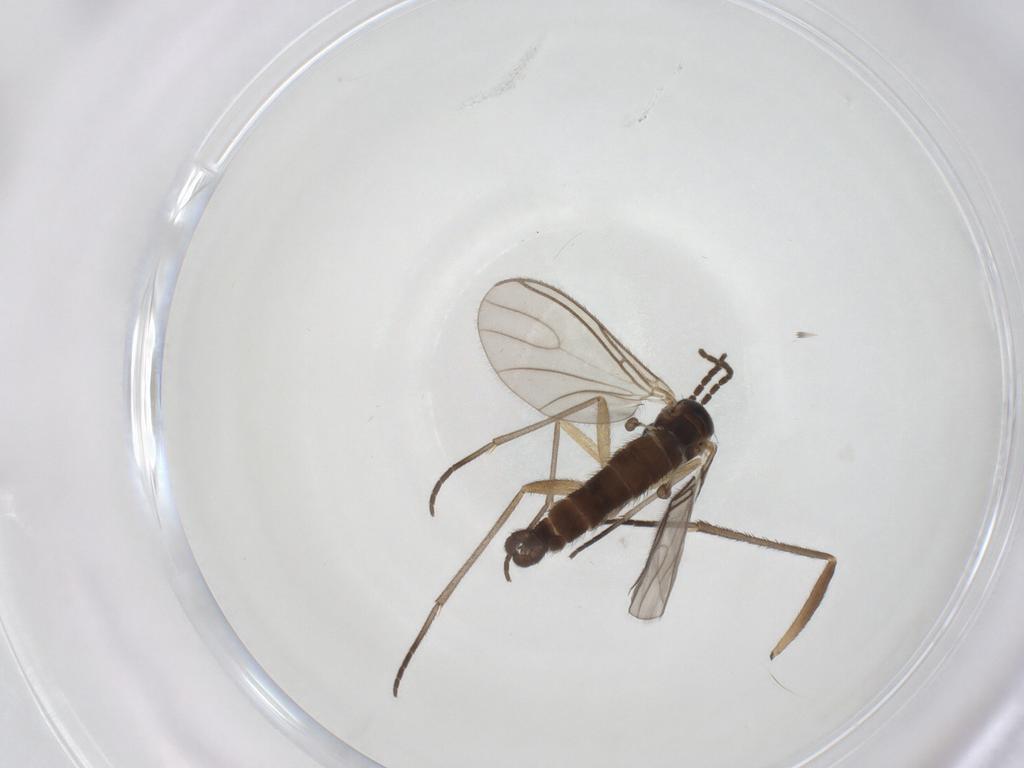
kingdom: Animalia
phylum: Arthropoda
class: Insecta
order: Diptera
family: Sciaridae
